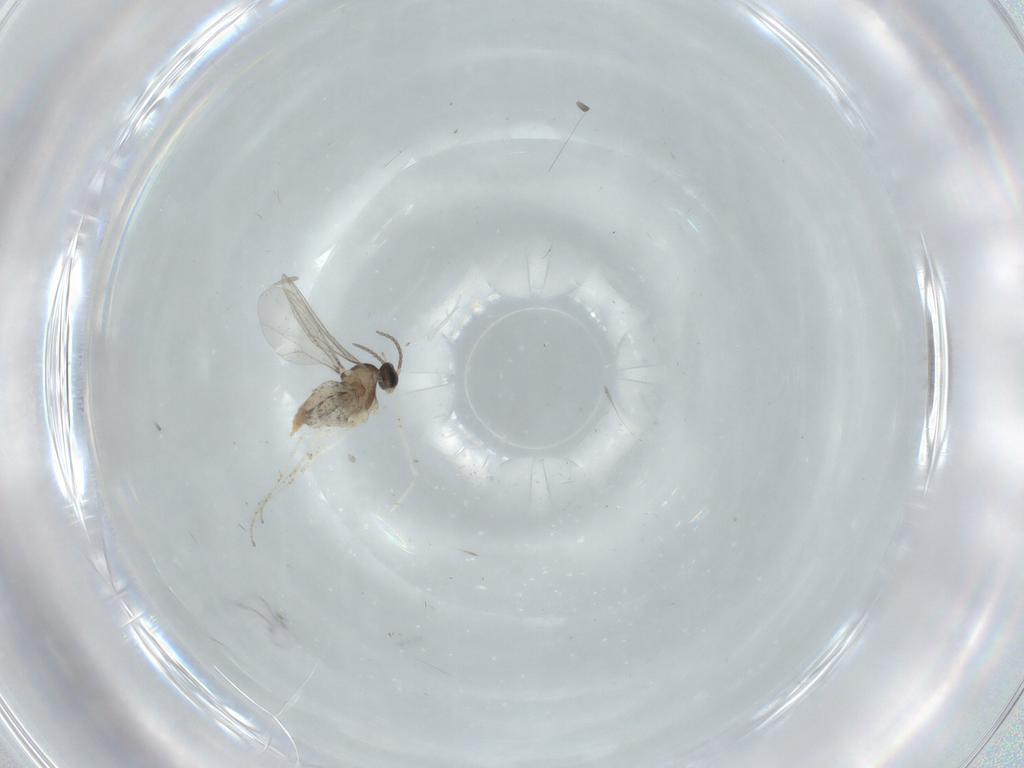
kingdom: Animalia
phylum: Arthropoda
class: Insecta
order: Diptera
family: Cecidomyiidae
